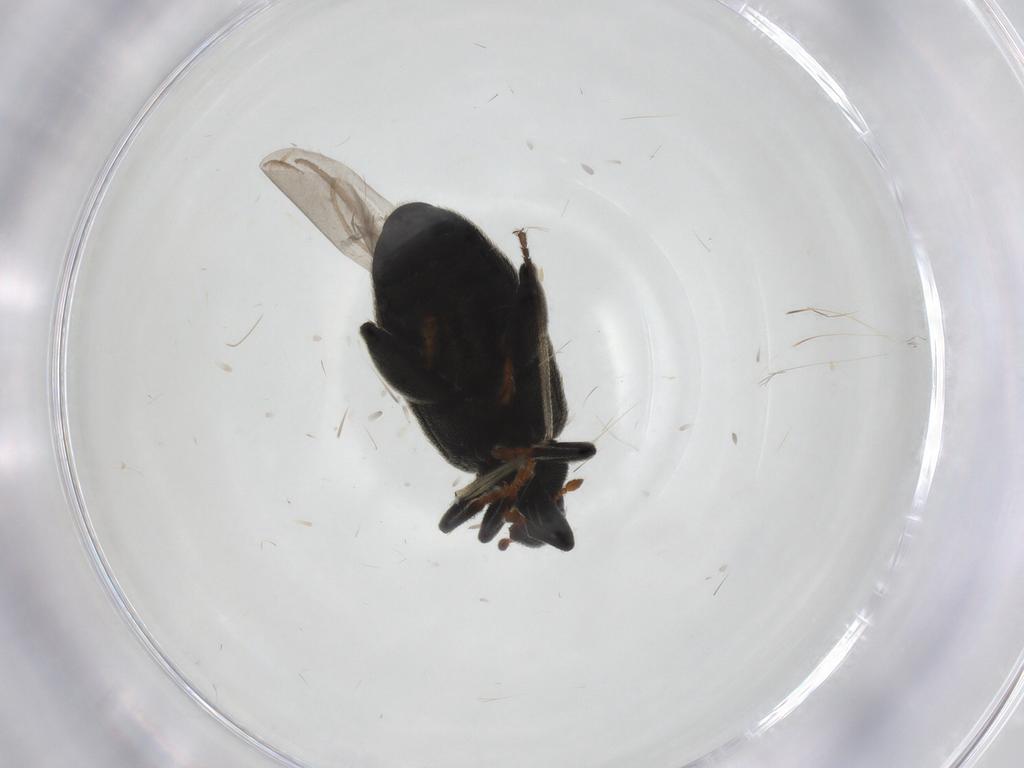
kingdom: Animalia
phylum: Arthropoda
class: Insecta
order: Coleoptera
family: Curculionidae
